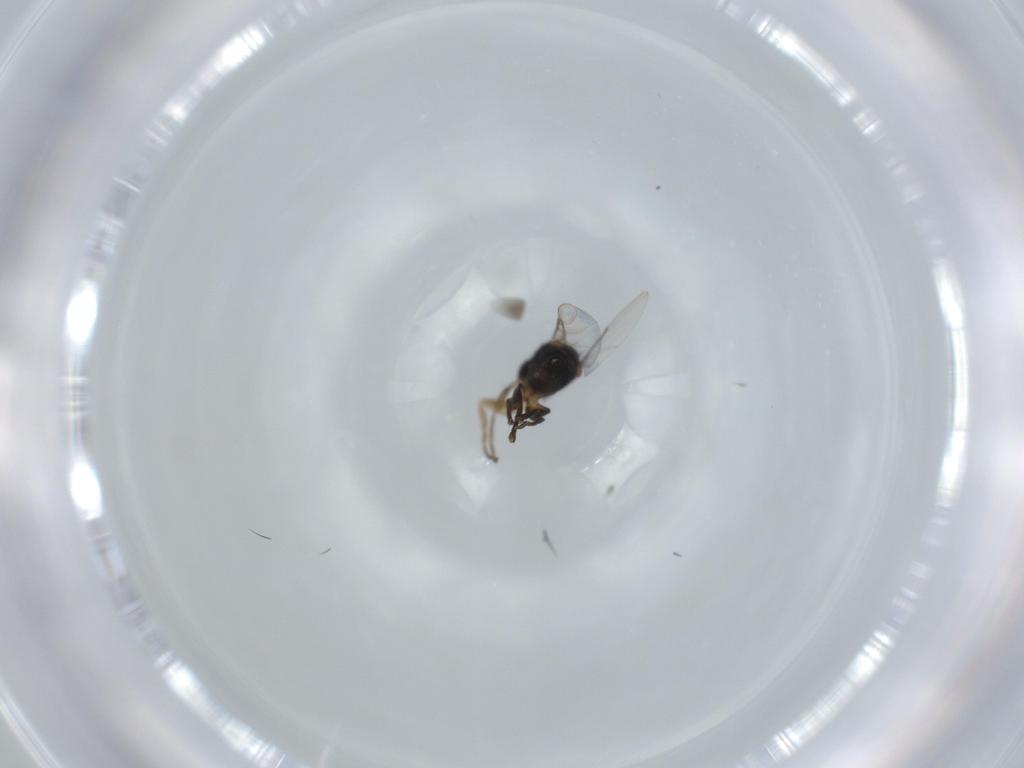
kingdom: Animalia
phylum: Arthropoda
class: Insecta
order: Diptera
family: Phoridae
